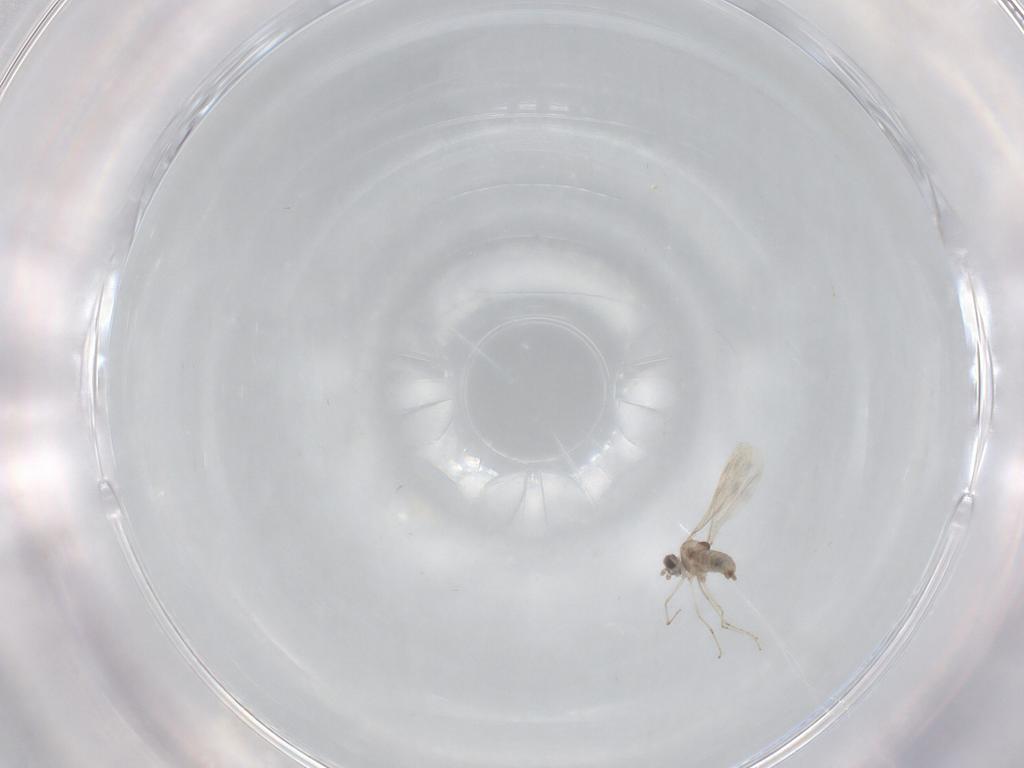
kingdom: Animalia
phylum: Arthropoda
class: Insecta
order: Diptera
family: Cecidomyiidae
